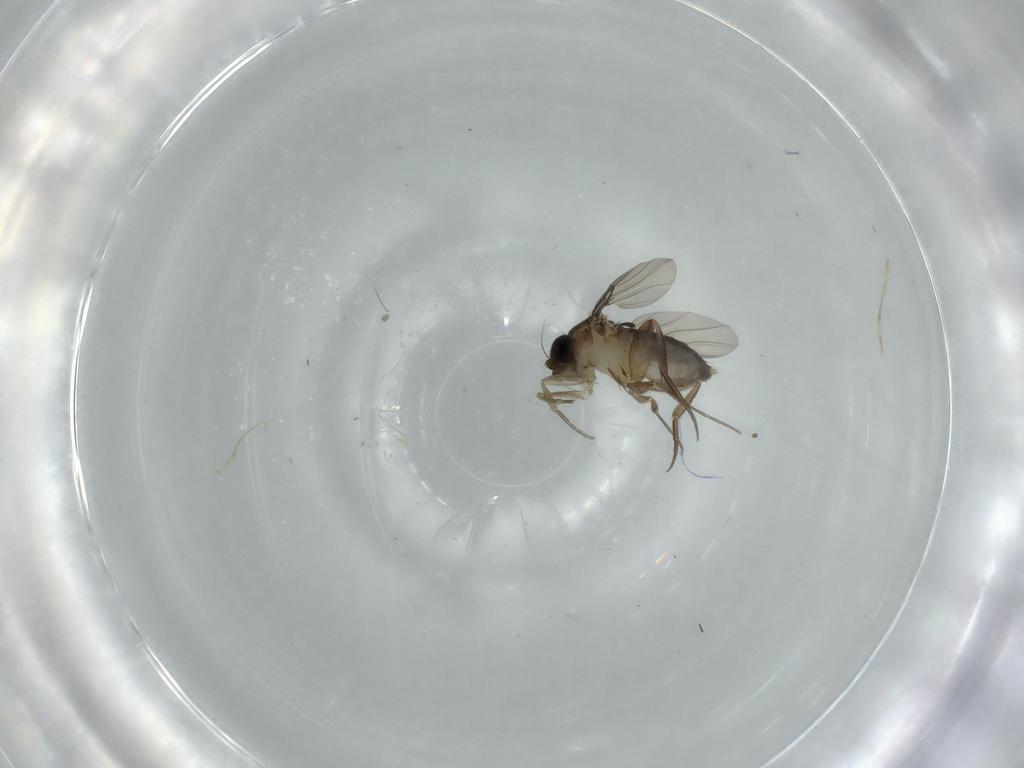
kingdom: Animalia
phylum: Arthropoda
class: Insecta
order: Diptera
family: Phoridae
